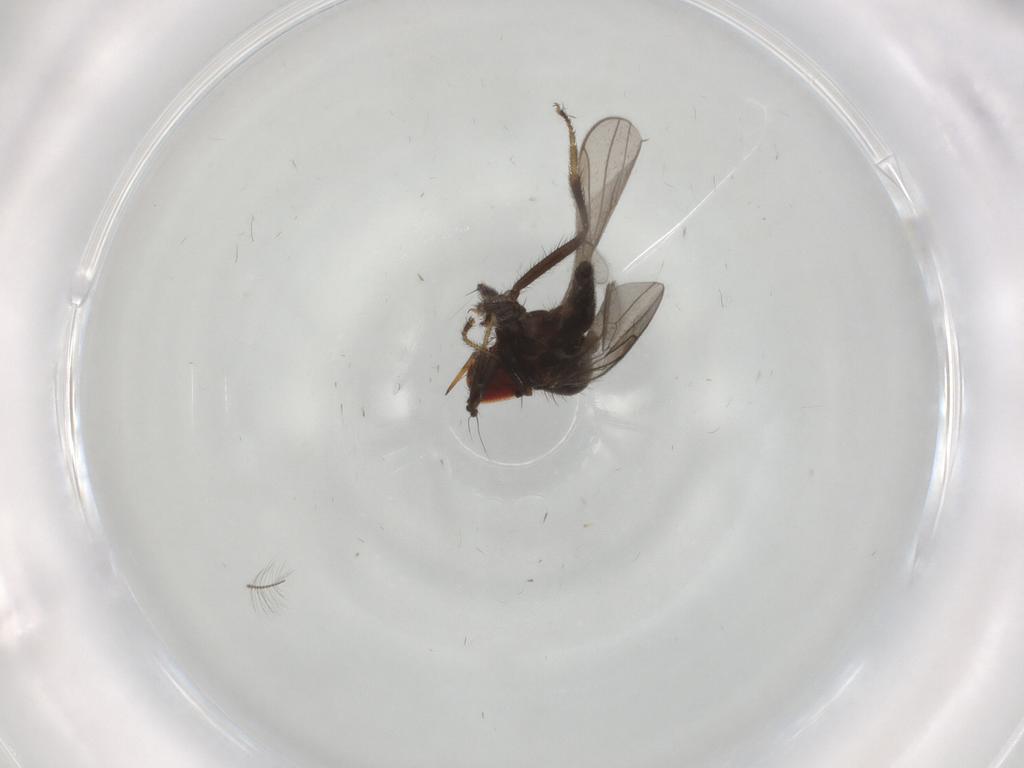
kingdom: Animalia
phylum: Arthropoda
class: Insecta
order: Diptera
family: Hybotidae
